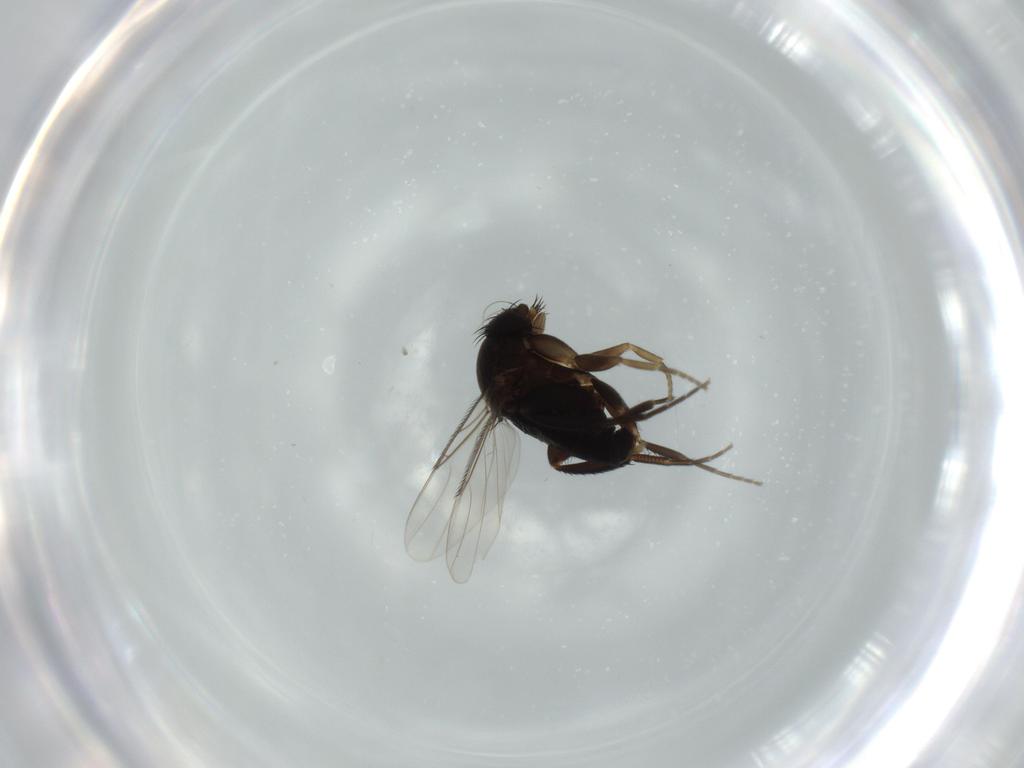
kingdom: Animalia
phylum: Arthropoda
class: Insecta
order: Diptera
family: Phoridae
